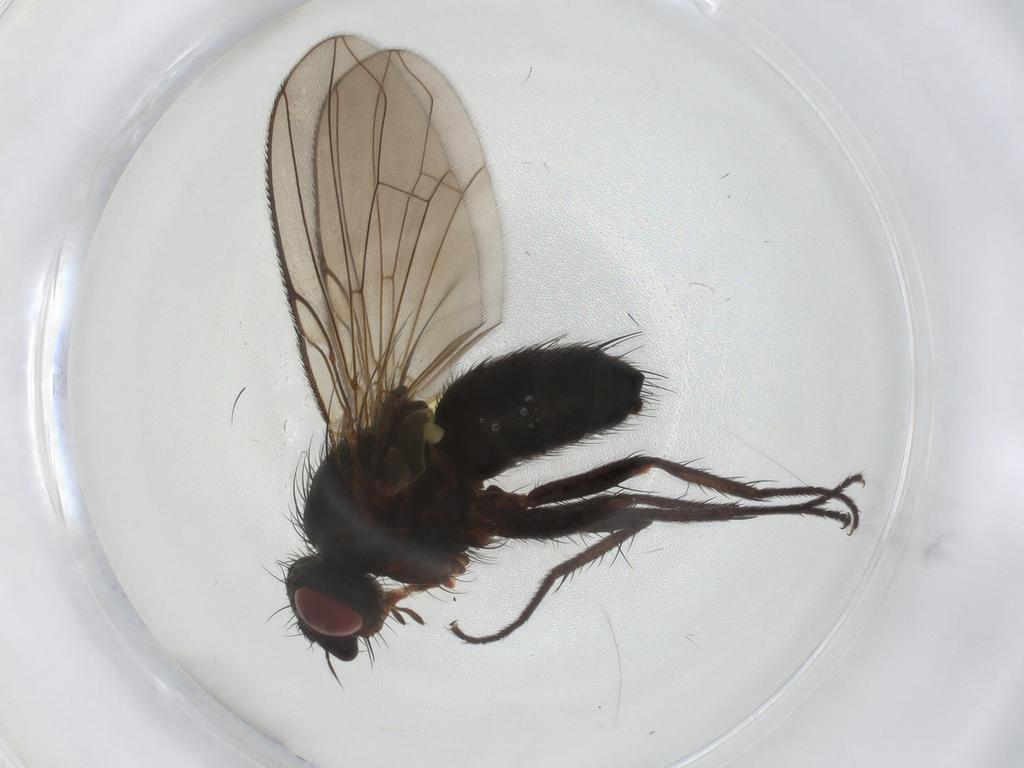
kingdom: Animalia
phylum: Arthropoda
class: Insecta
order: Diptera
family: Tachinidae
